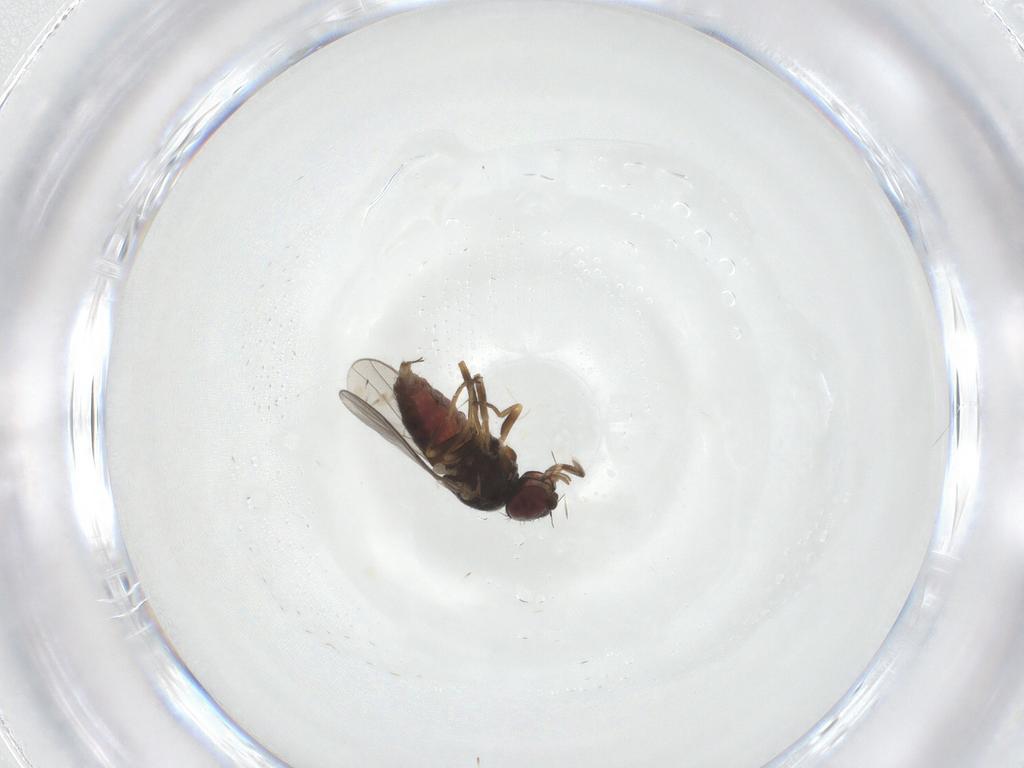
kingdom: Animalia
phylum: Arthropoda
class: Insecta
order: Diptera
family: Chloropidae
